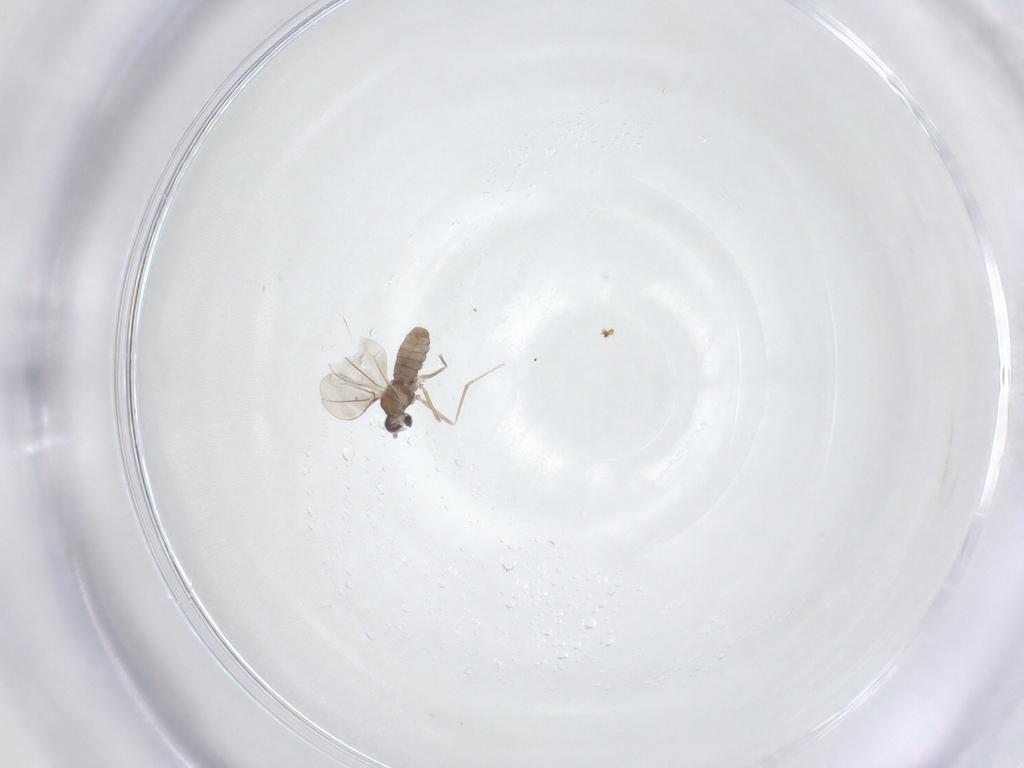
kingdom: Animalia
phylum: Arthropoda
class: Insecta
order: Diptera
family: Cecidomyiidae
